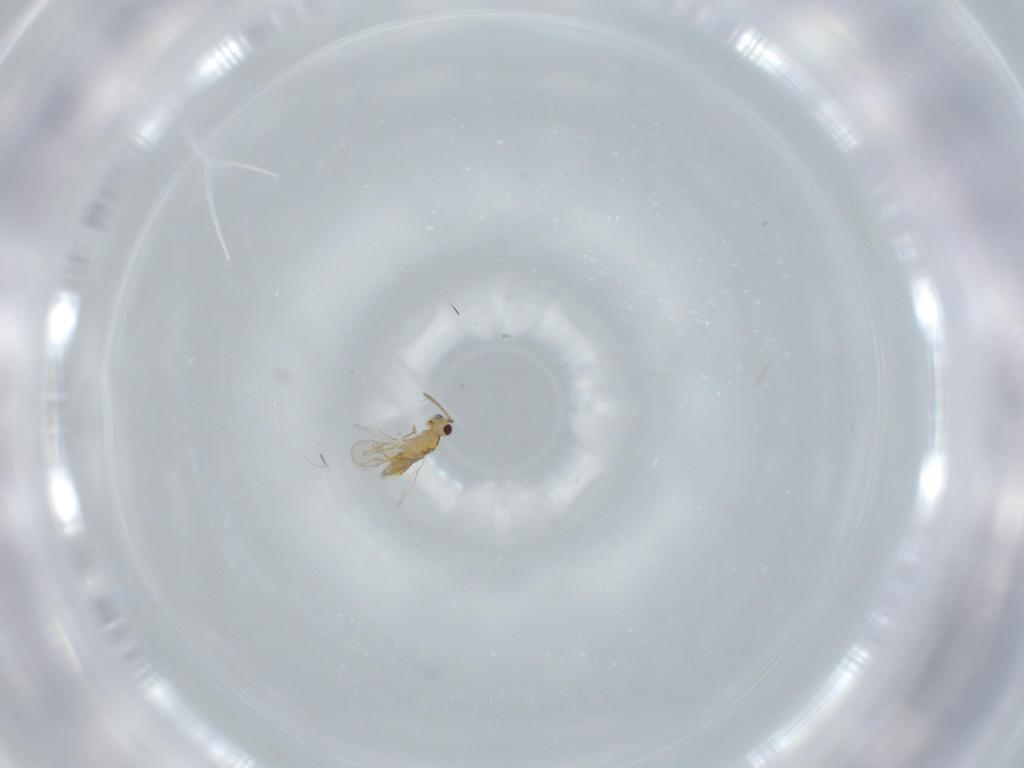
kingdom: Animalia
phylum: Arthropoda
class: Insecta
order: Hymenoptera
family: Aphelinidae
